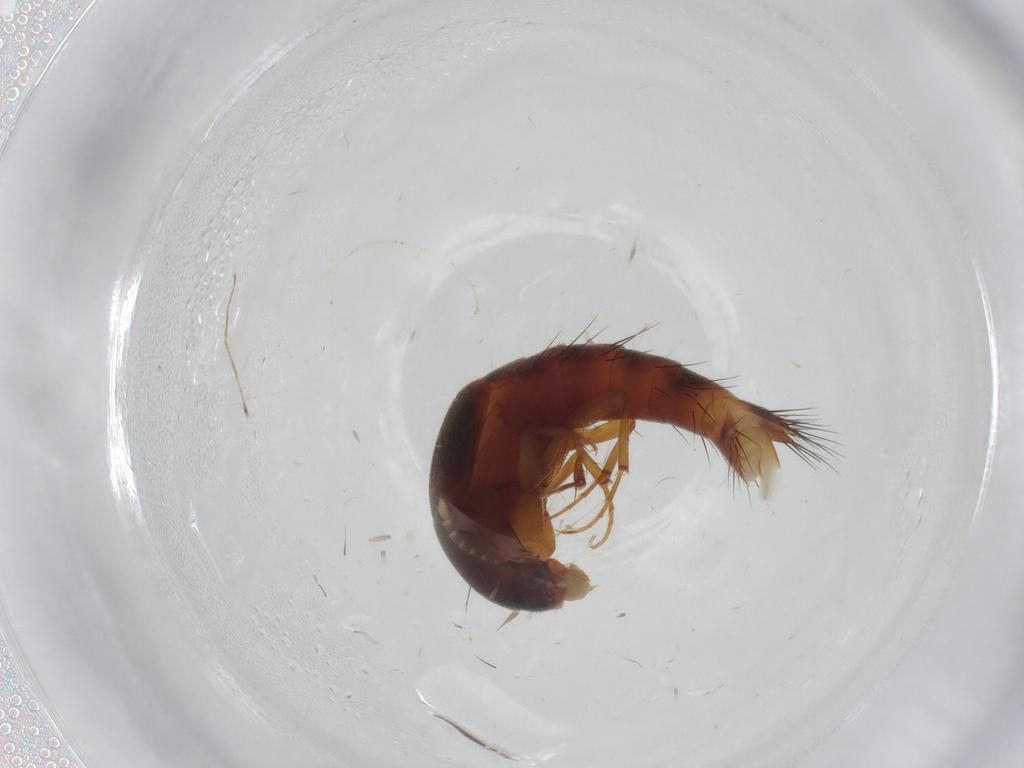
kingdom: Animalia
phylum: Arthropoda
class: Insecta
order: Coleoptera
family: Staphylinidae
